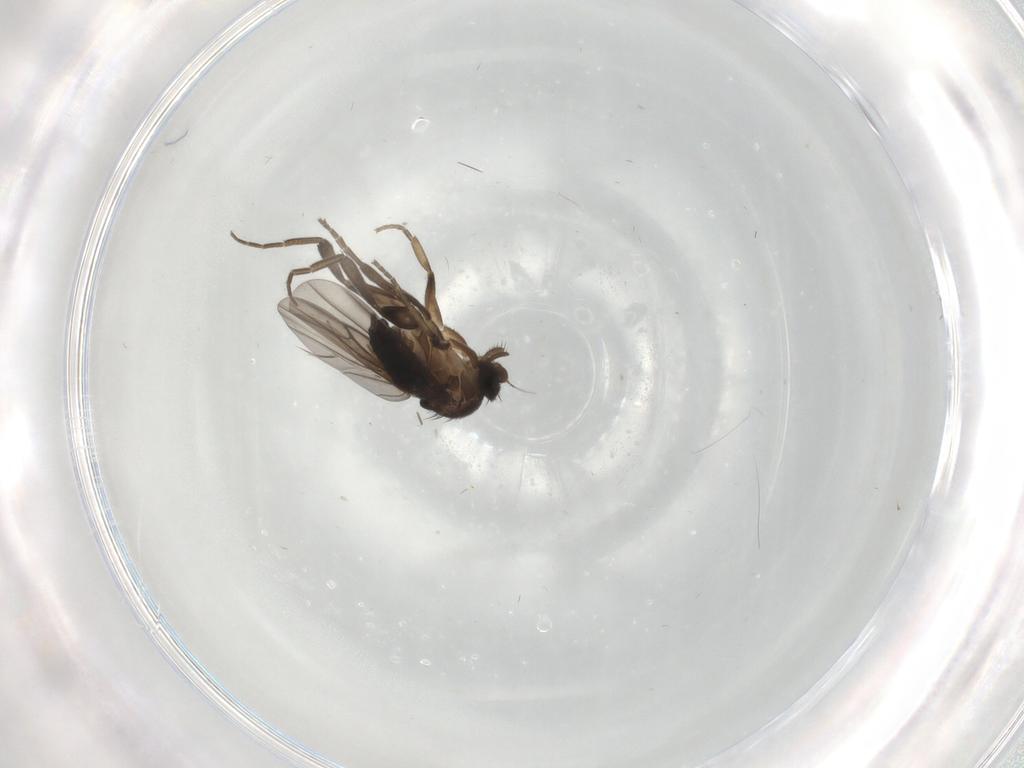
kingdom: Animalia
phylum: Arthropoda
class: Insecta
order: Diptera
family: Phoridae
